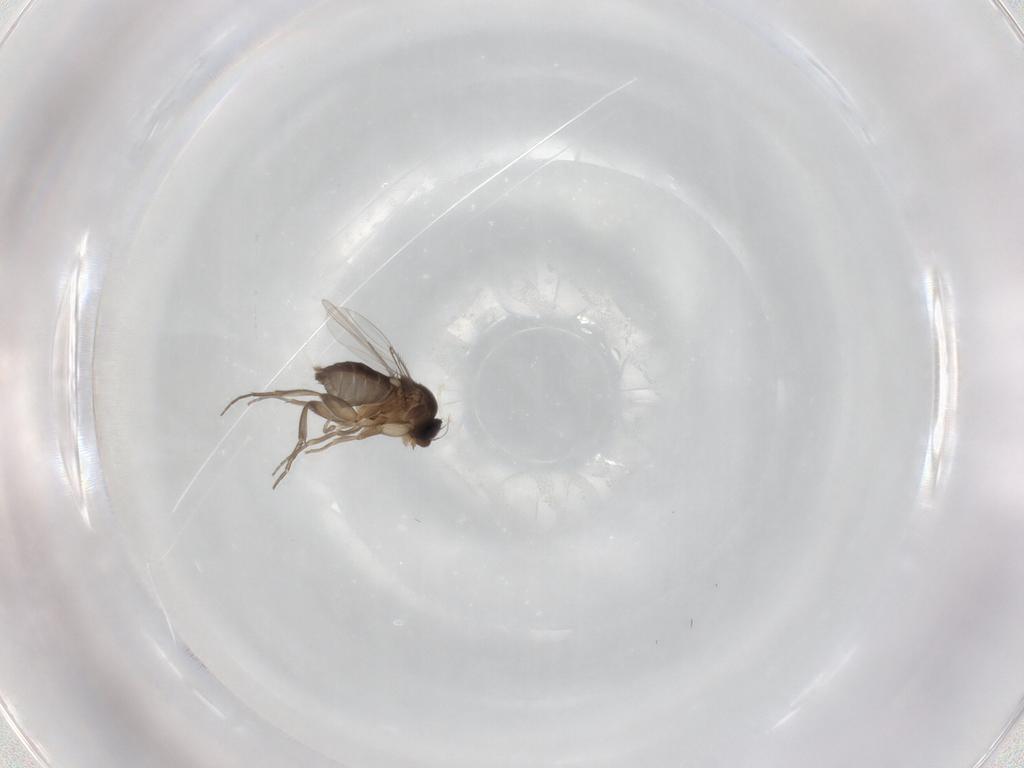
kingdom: Animalia
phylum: Arthropoda
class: Insecta
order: Diptera
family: Phoridae
